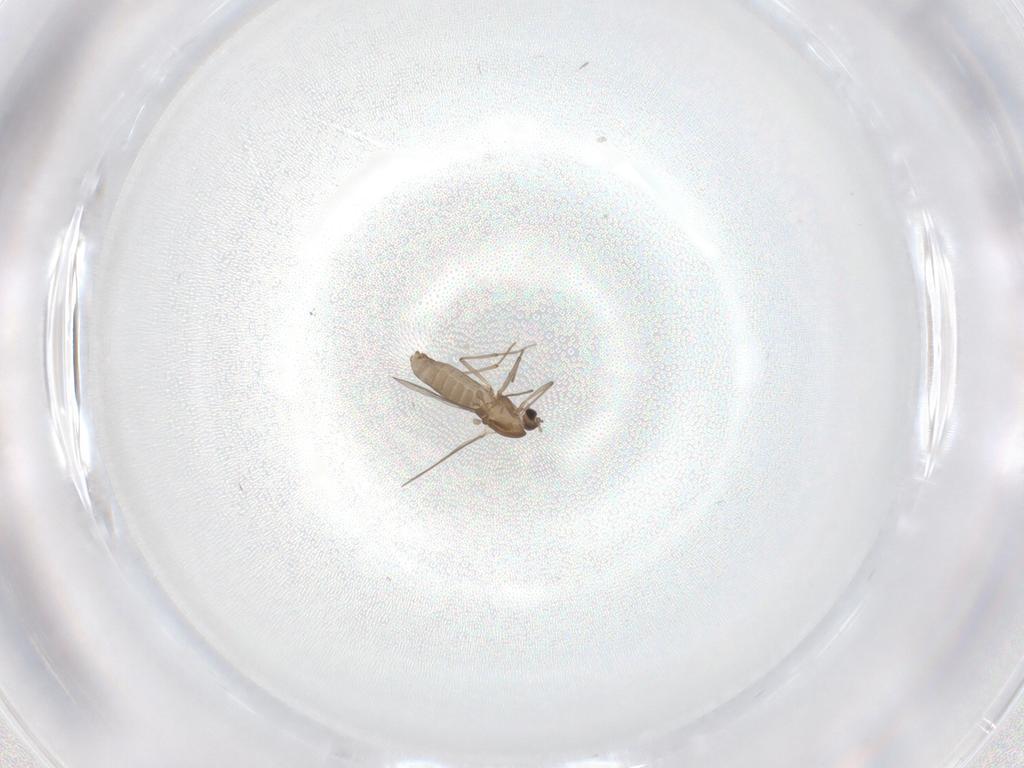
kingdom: Animalia
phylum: Arthropoda
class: Insecta
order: Diptera
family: Chironomidae
